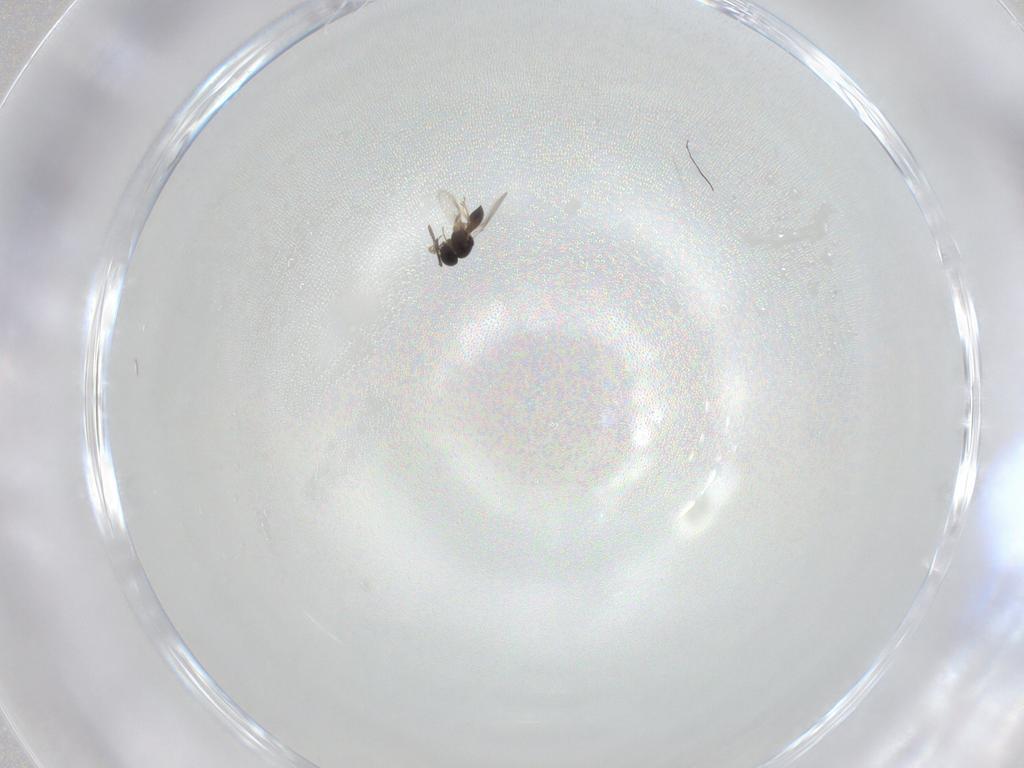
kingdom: Animalia
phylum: Arthropoda
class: Insecta
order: Hymenoptera
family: Scelionidae
